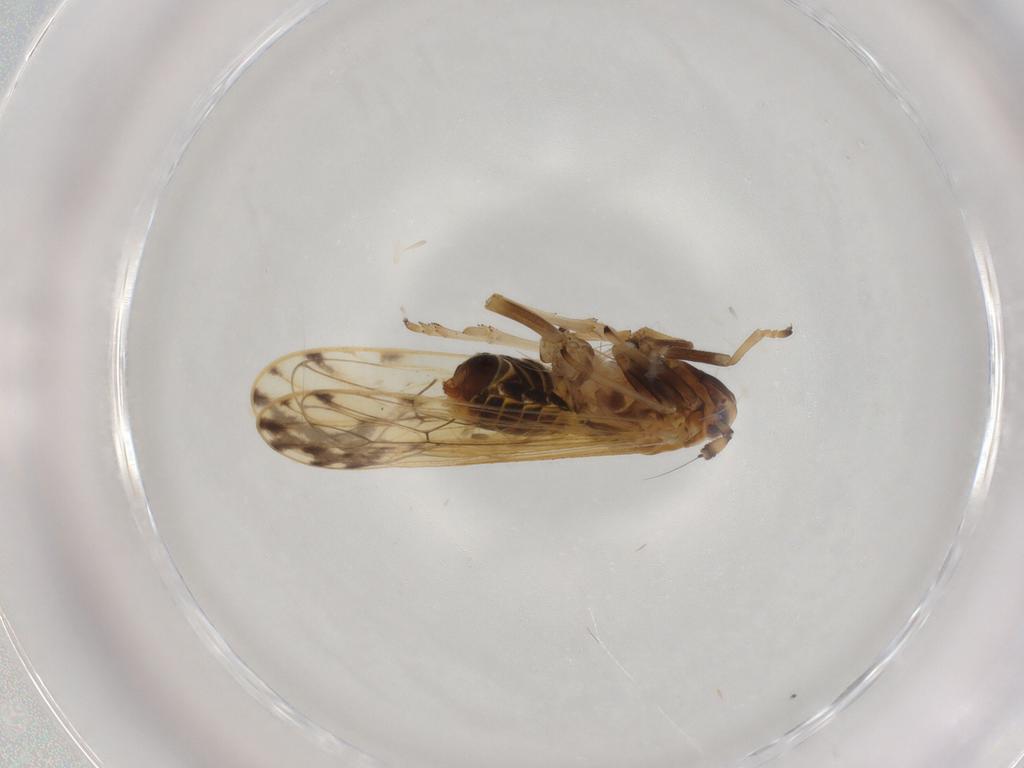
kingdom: Animalia
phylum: Arthropoda
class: Insecta
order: Hemiptera
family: Delphacidae
